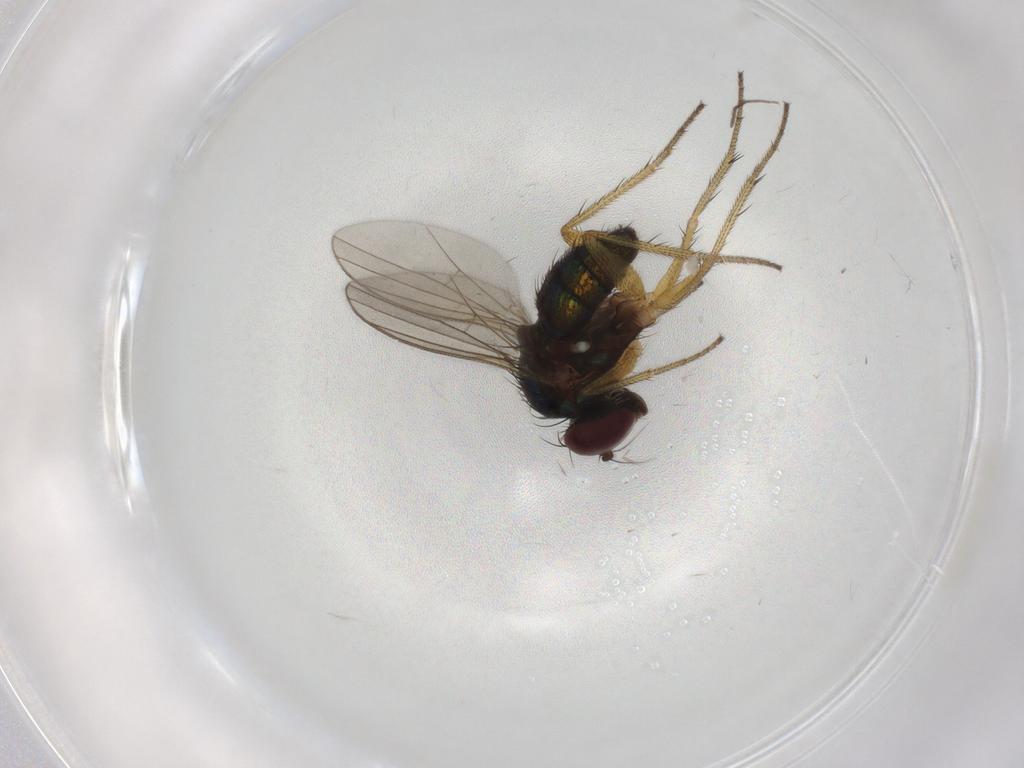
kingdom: Animalia
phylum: Arthropoda
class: Insecta
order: Diptera
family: Dolichopodidae
